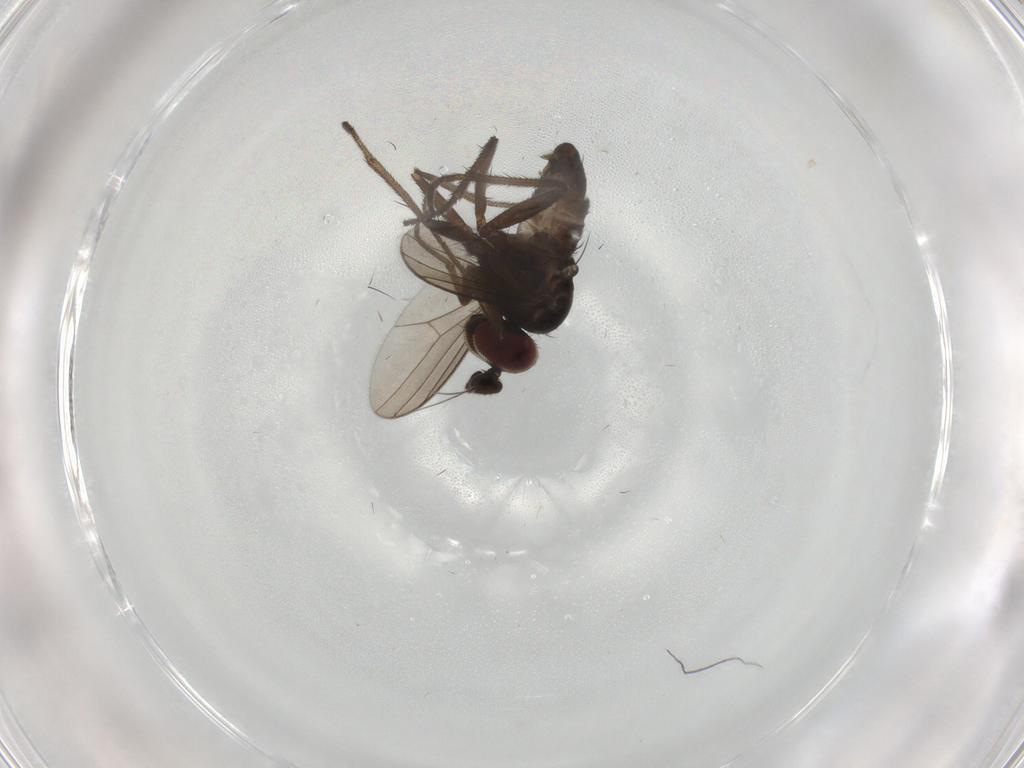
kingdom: Animalia
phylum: Arthropoda
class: Insecta
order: Diptera
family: Dolichopodidae
